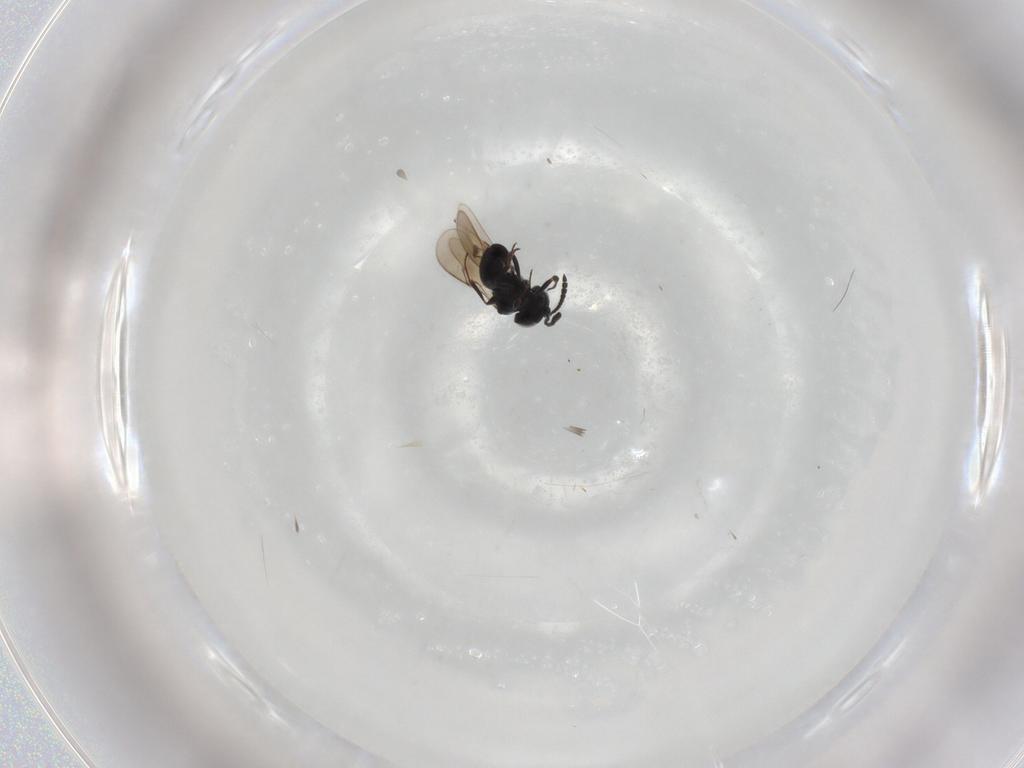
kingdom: Animalia
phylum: Arthropoda
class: Insecta
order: Hymenoptera
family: Scelionidae
